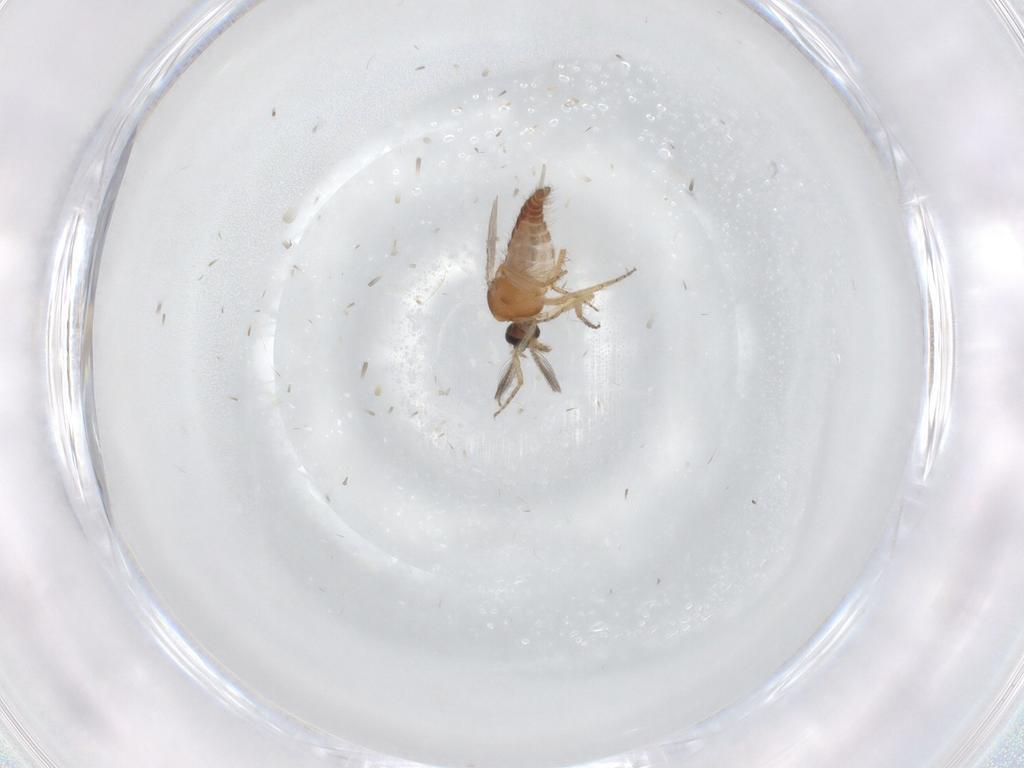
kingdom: Animalia
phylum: Arthropoda
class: Insecta
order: Diptera
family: Ceratopogonidae
